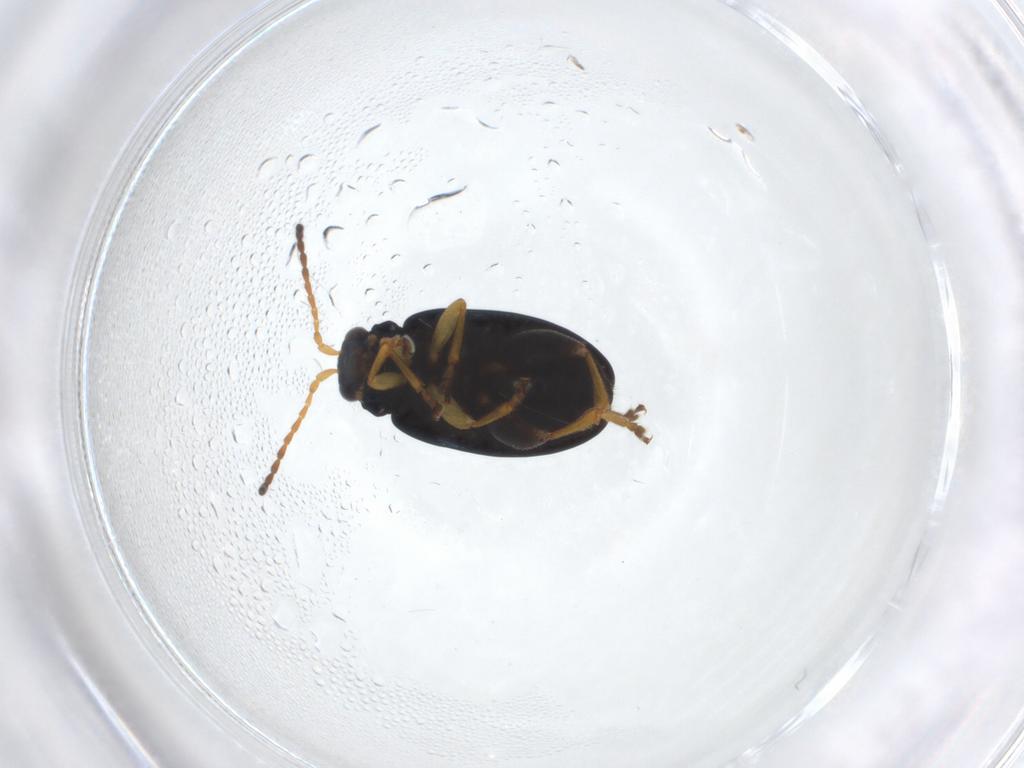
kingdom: Animalia
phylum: Arthropoda
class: Insecta
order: Coleoptera
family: Chrysomelidae
